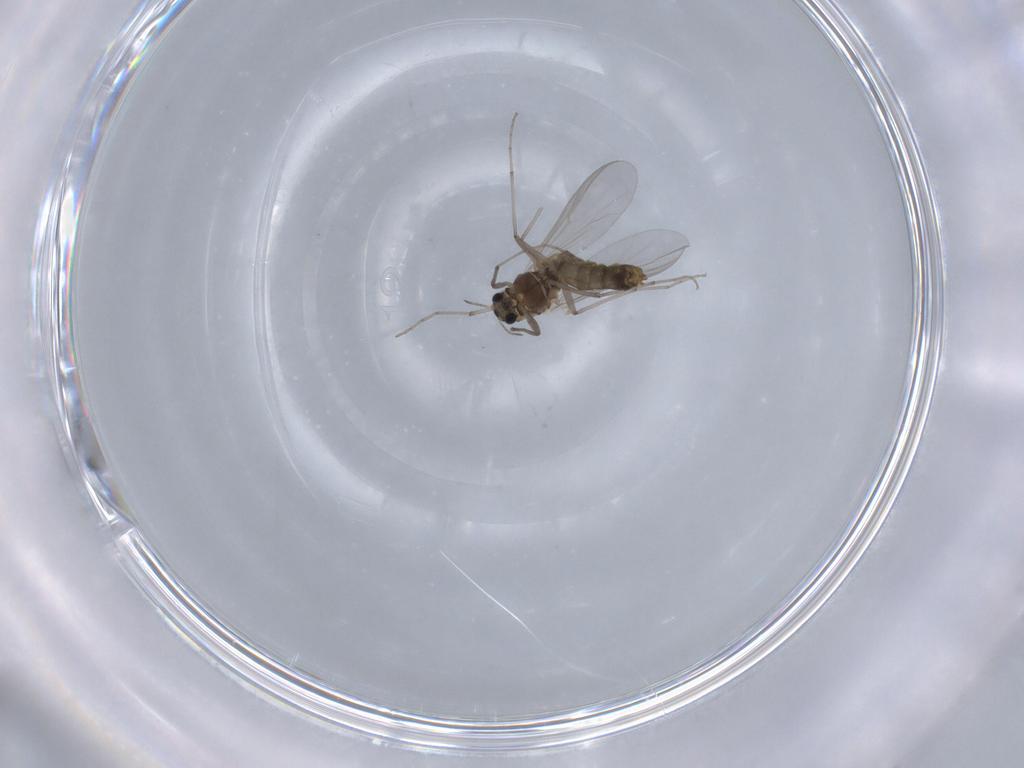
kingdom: Animalia
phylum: Arthropoda
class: Insecta
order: Diptera
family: Chironomidae
